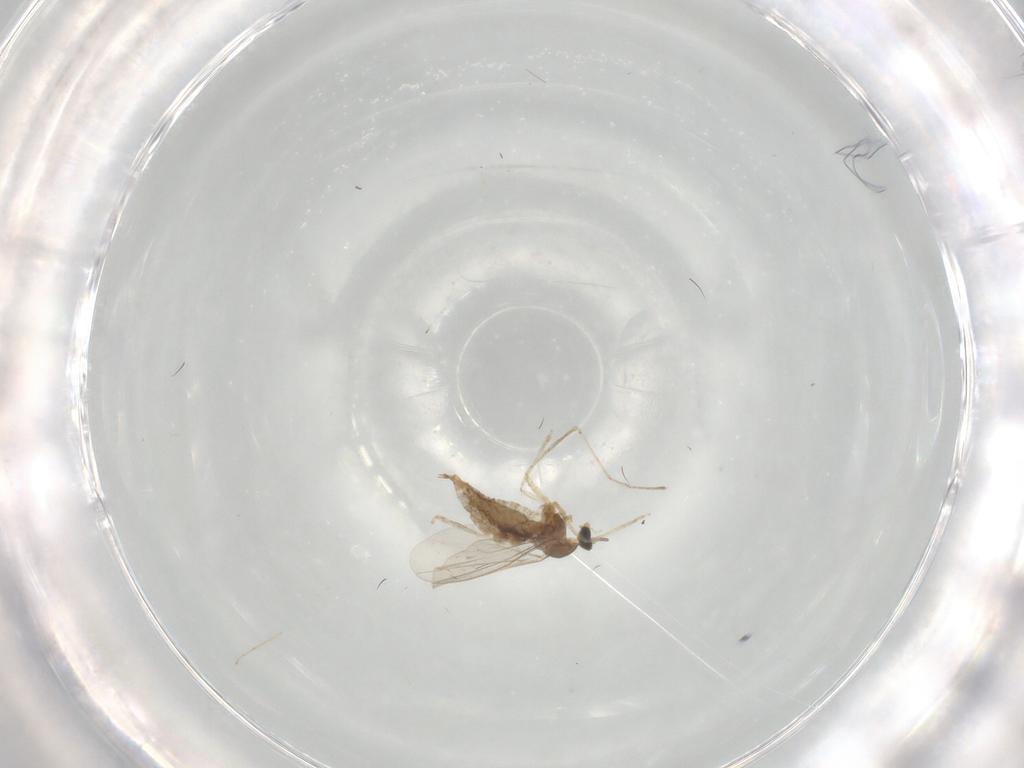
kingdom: Animalia
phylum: Arthropoda
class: Insecta
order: Diptera
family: Cecidomyiidae
